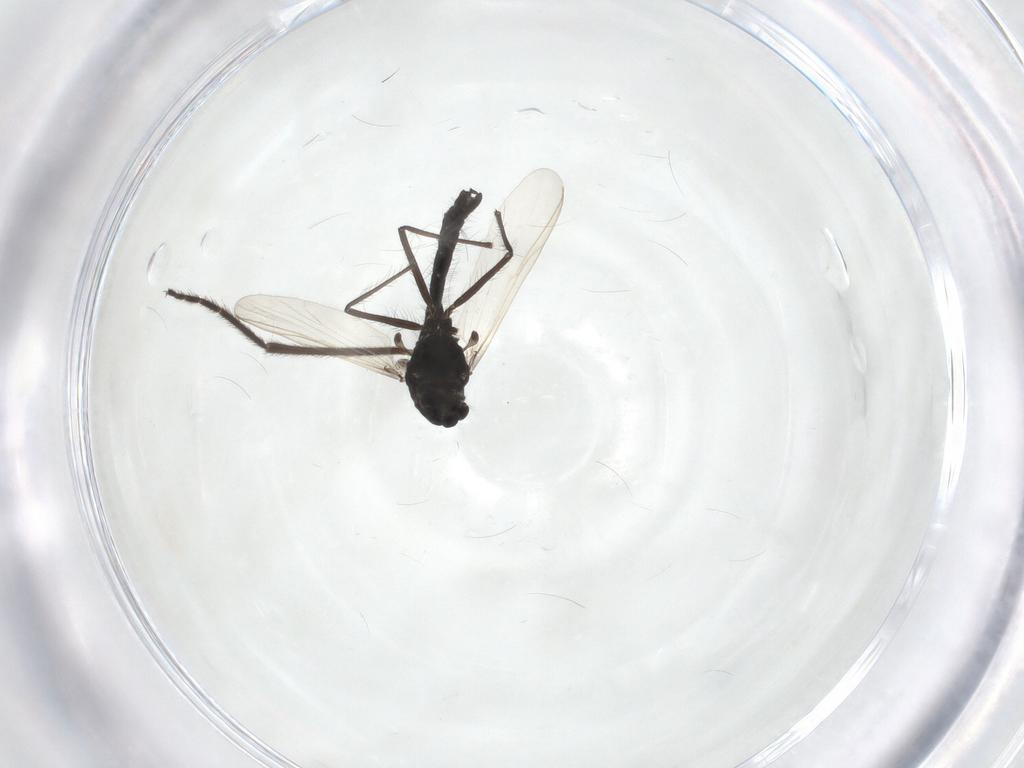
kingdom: Animalia
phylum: Arthropoda
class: Insecta
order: Diptera
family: Chironomidae
